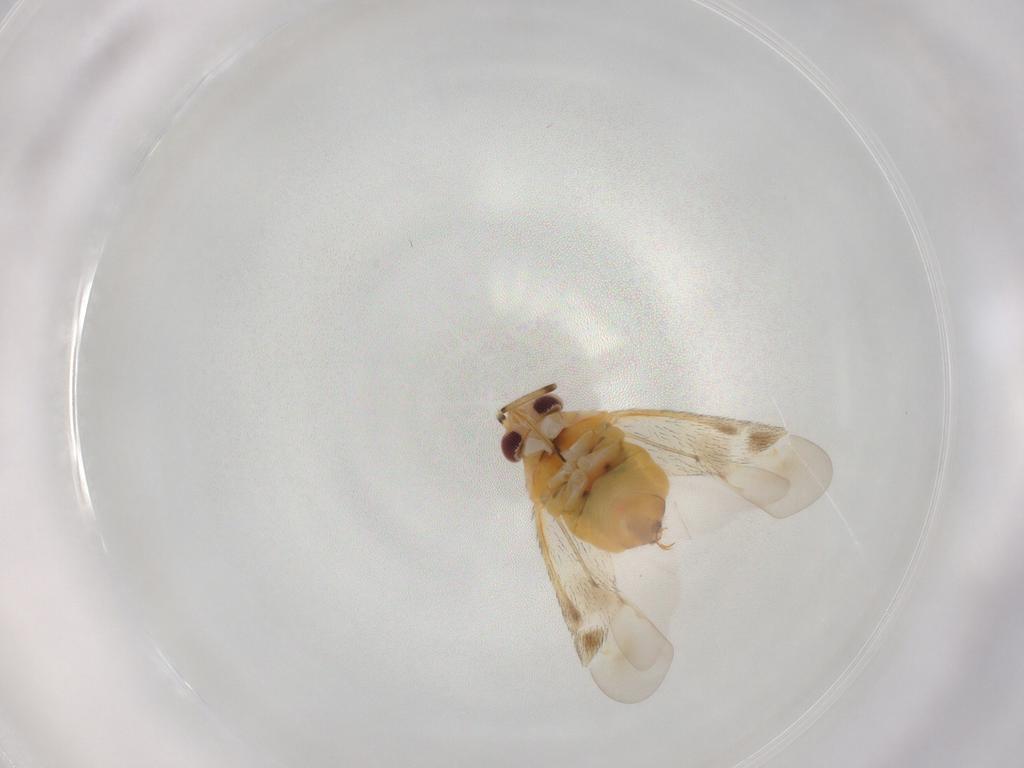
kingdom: Animalia
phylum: Arthropoda
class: Insecta
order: Hemiptera
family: Miridae
